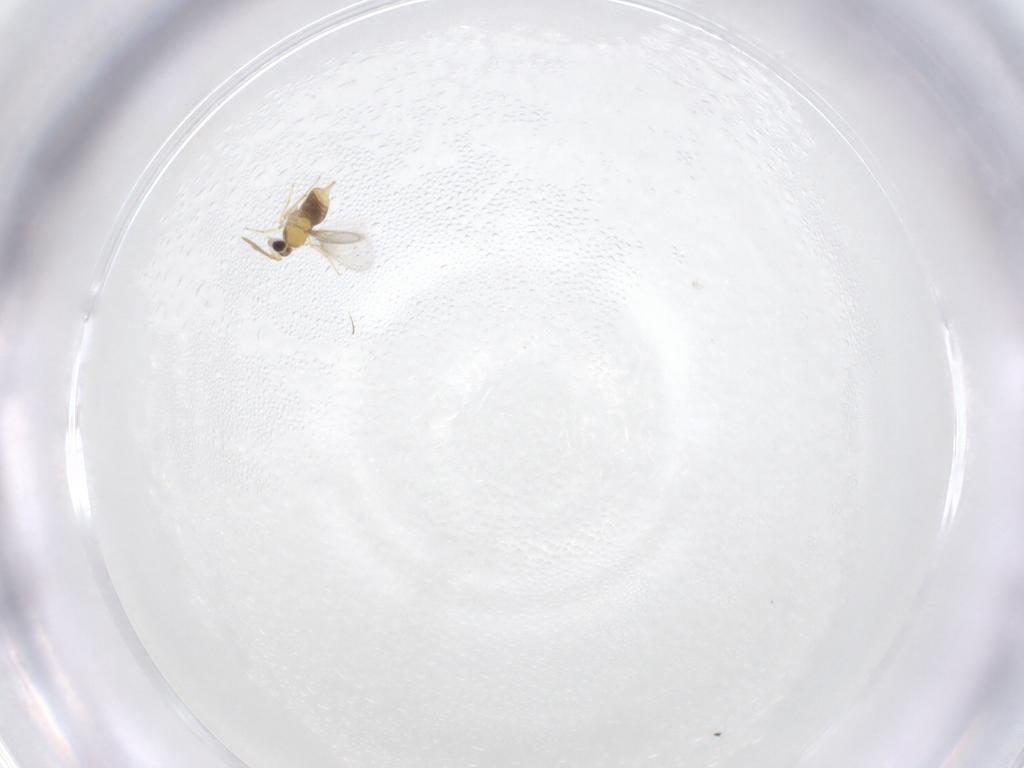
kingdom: Animalia
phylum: Arthropoda
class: Insecta
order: Hymenoptera
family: Aphelinidae
